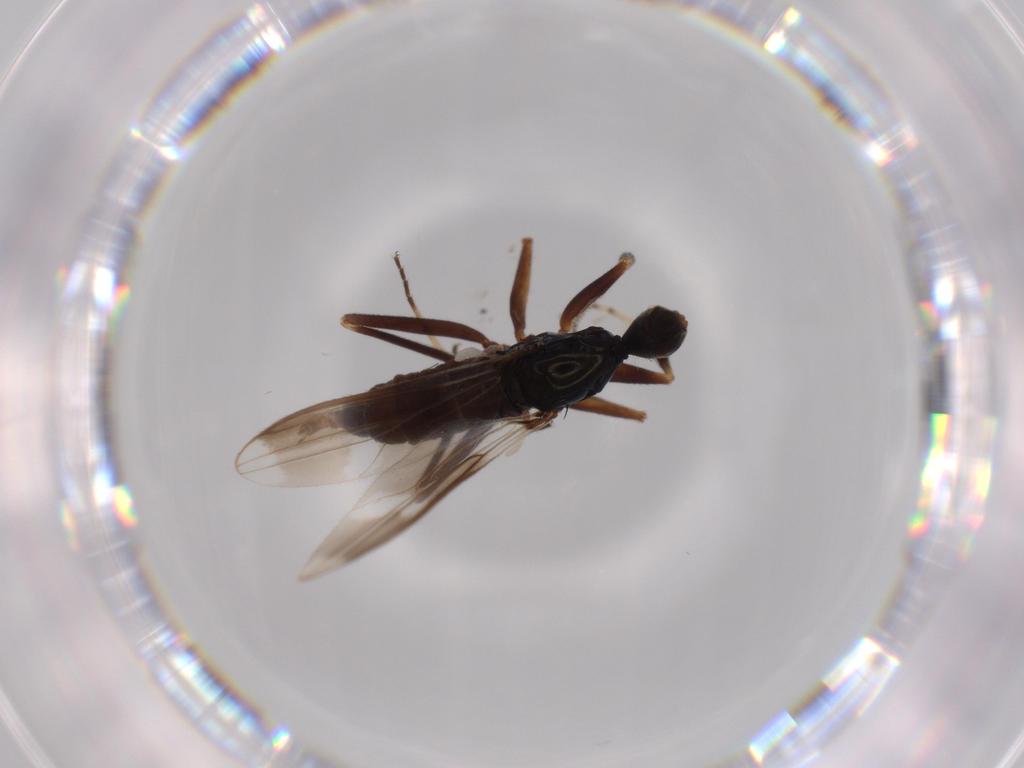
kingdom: Animalia
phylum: Arthropoda
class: Insecta
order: Diptera
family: Hybotidae
